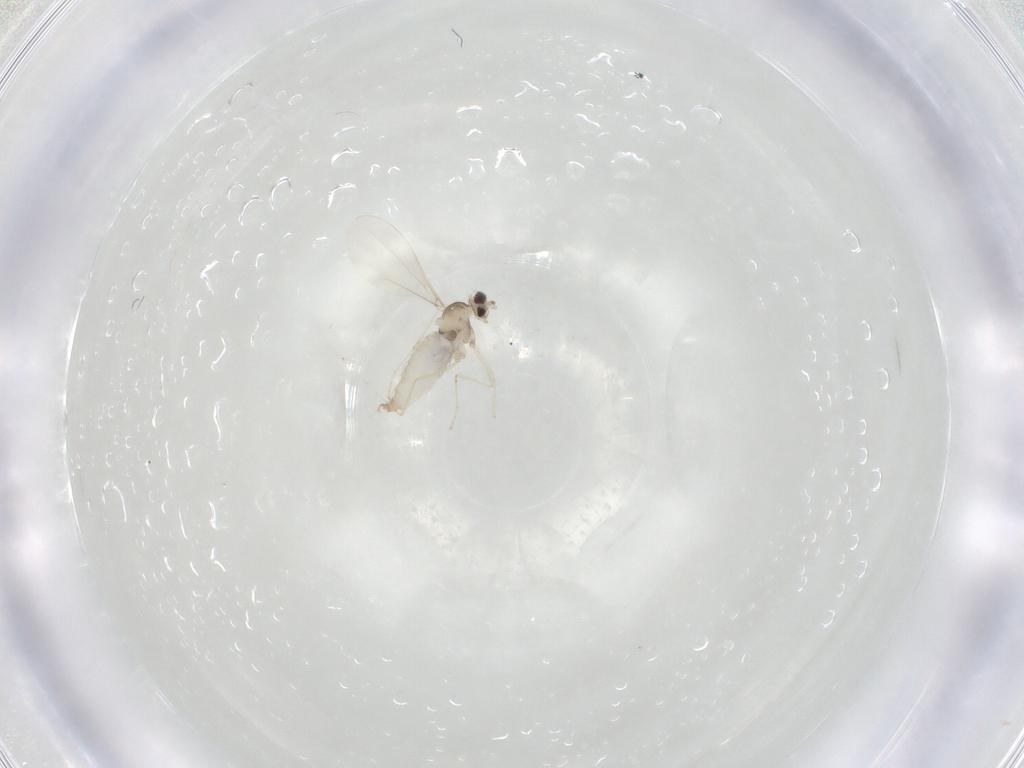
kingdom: Animalia
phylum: Arthropoda
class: Insecta
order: Diptera
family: Cecidomyiidae
